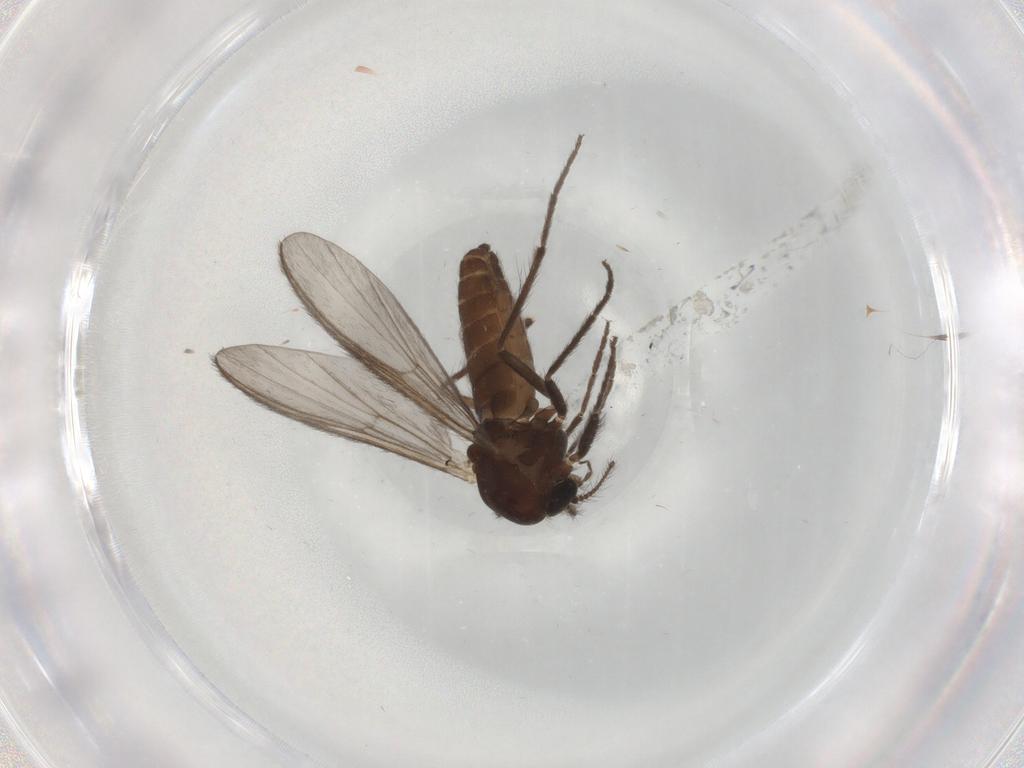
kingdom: Animalia
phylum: Arthropoda
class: Insecta
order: Diptera
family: Chironomidae
